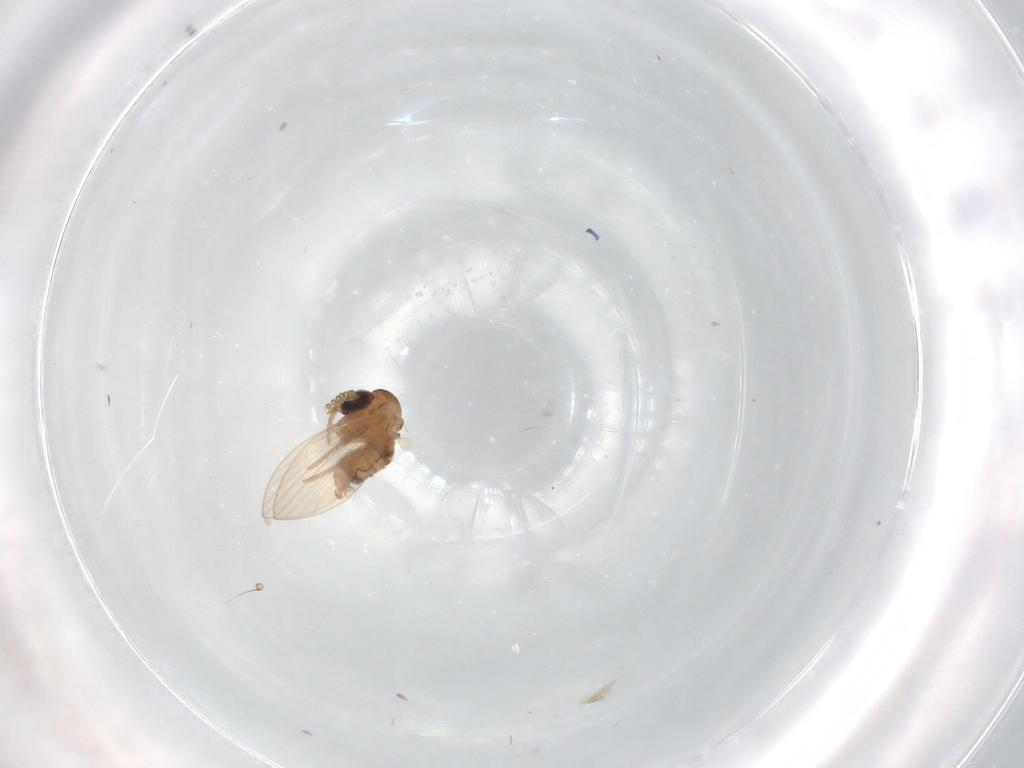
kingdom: Animalia
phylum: Arthropoda
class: Insecta
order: Diptera
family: Psychodidae
